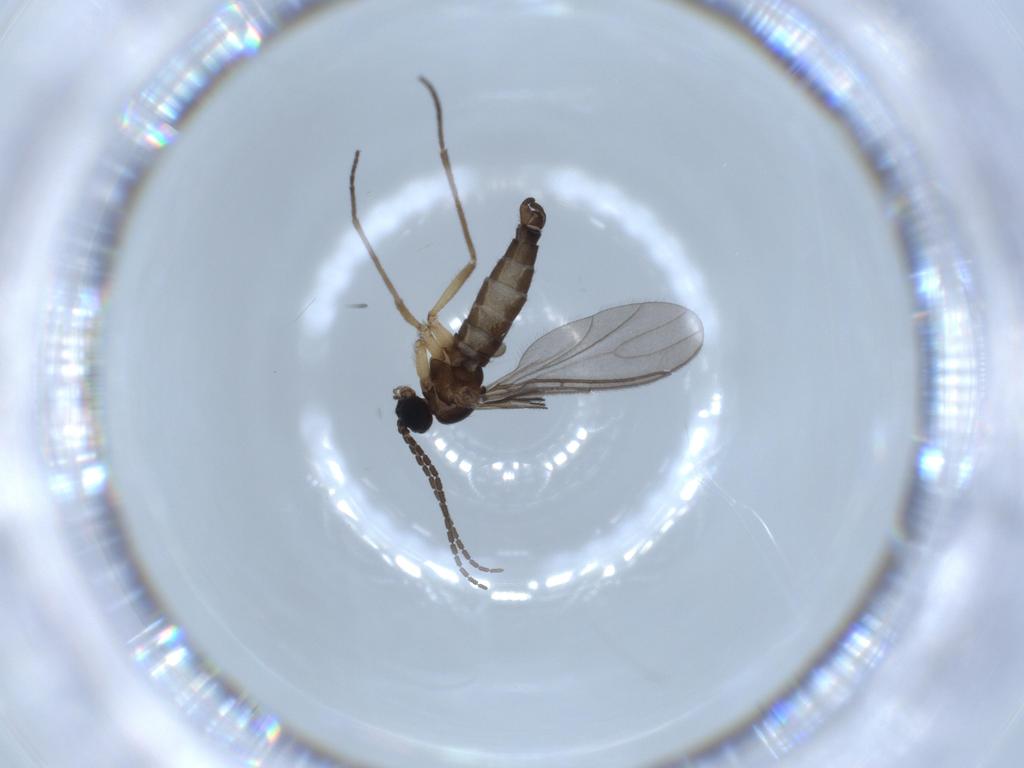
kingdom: Animalia
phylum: Arthropoda
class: Insecta
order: Diptera
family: Sciaridae
